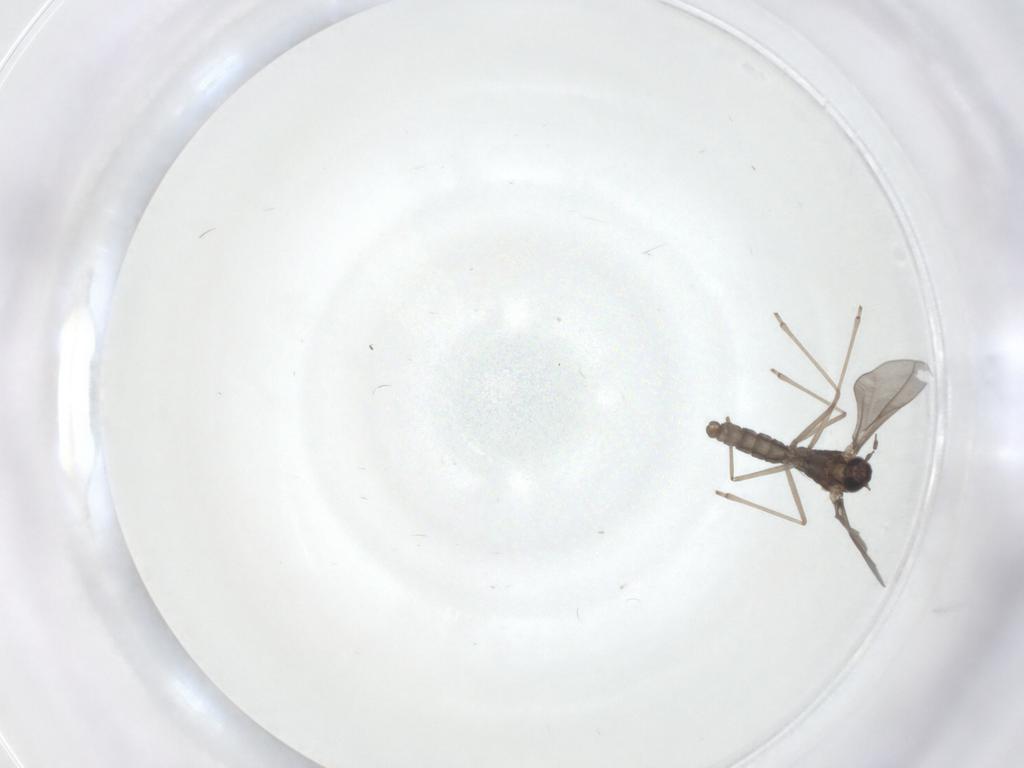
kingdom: Animalia
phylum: Arthropoda
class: Insecta
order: Diptera
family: Cecidomyiidae
